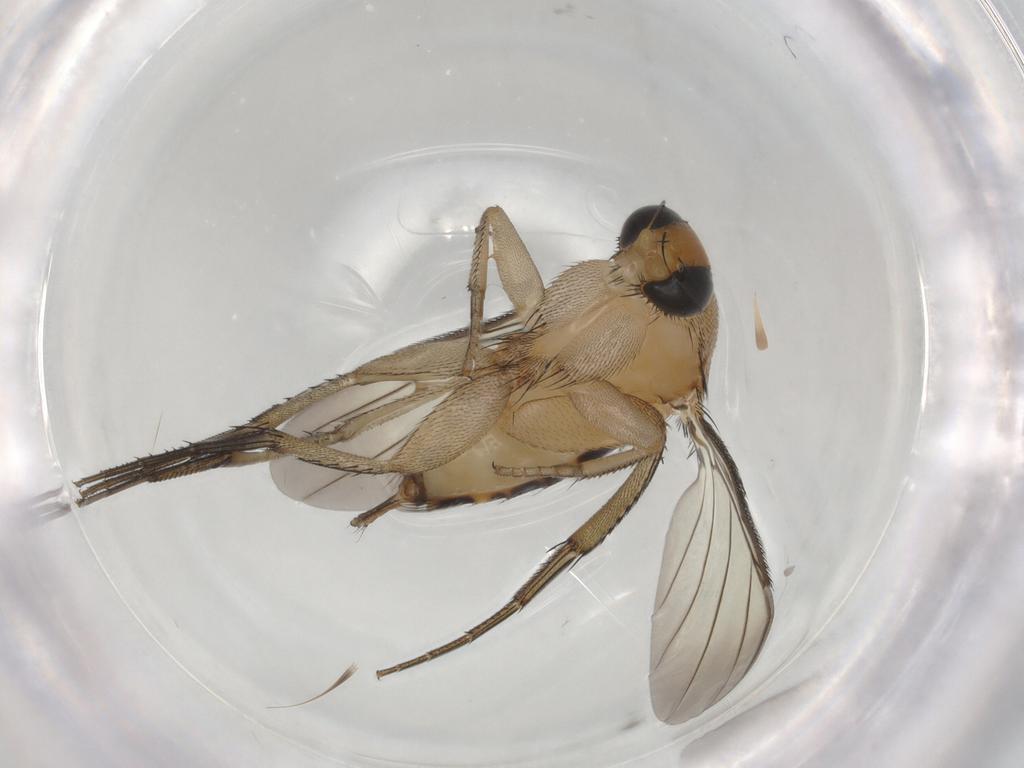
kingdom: Animalia
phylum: Arthropoda
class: Insecta
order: Diptera
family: Phoridae
